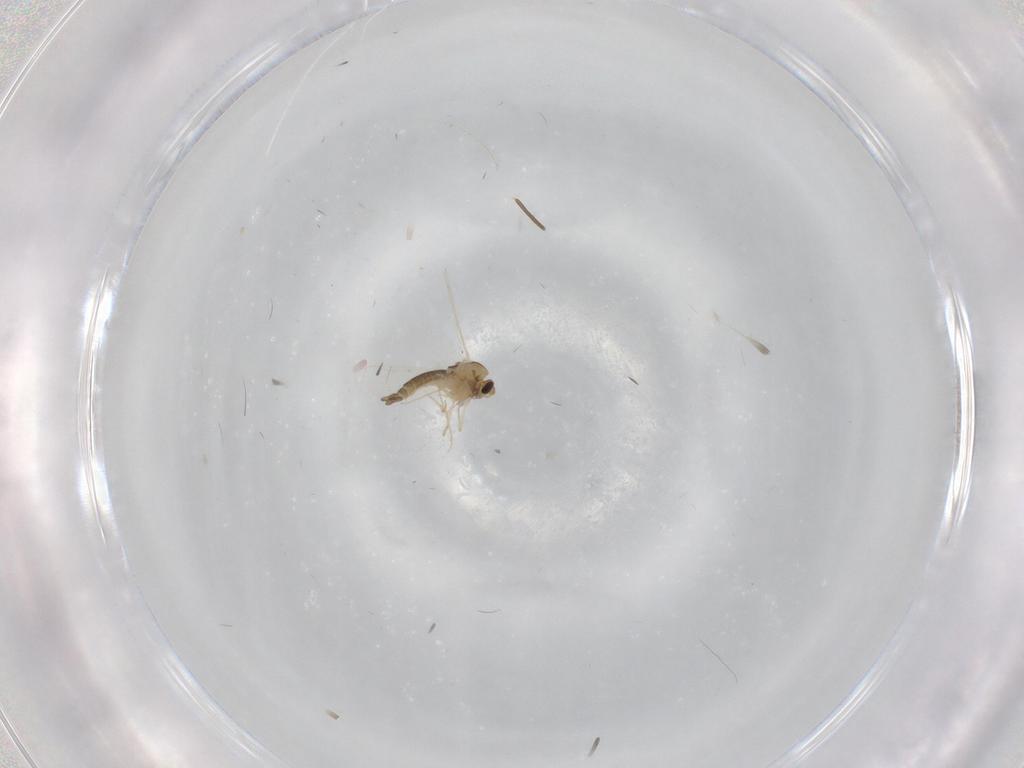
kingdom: Animalia
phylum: Arthropoda
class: Insecta
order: Diptera
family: Chironomidae
